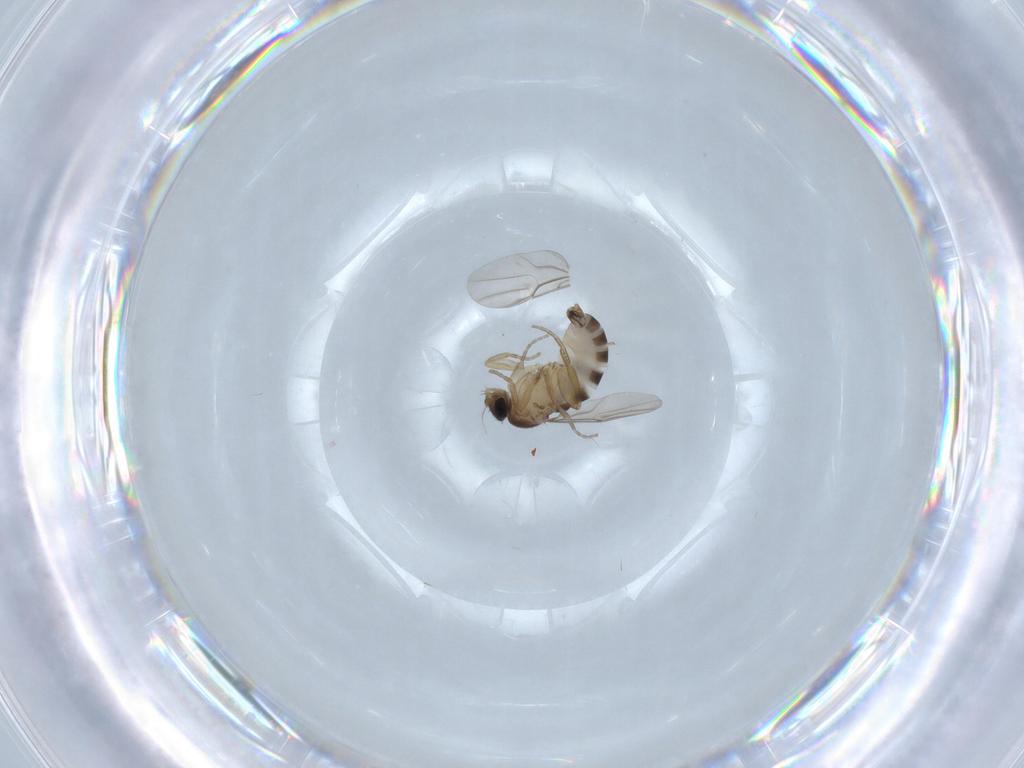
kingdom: Animalia
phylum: Arthropoda
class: Insecta
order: Diptera
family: Phoridae
